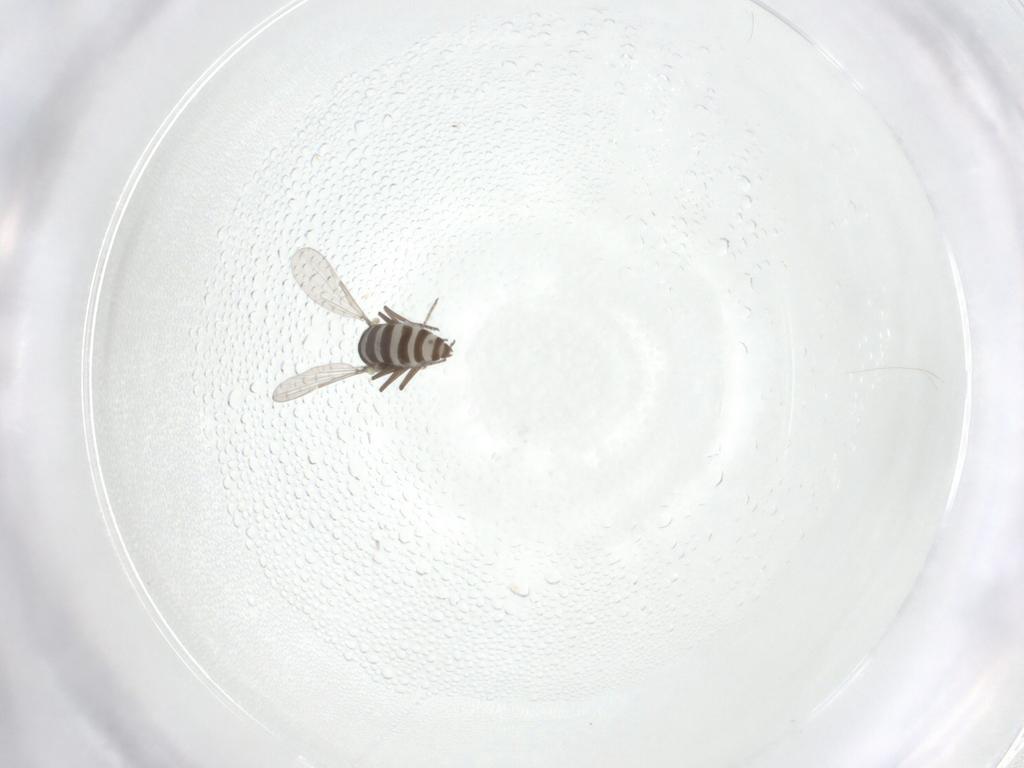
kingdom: Animalia
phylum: Arthropoda
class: Insecta
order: Diptera
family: Ceratopogonidae
